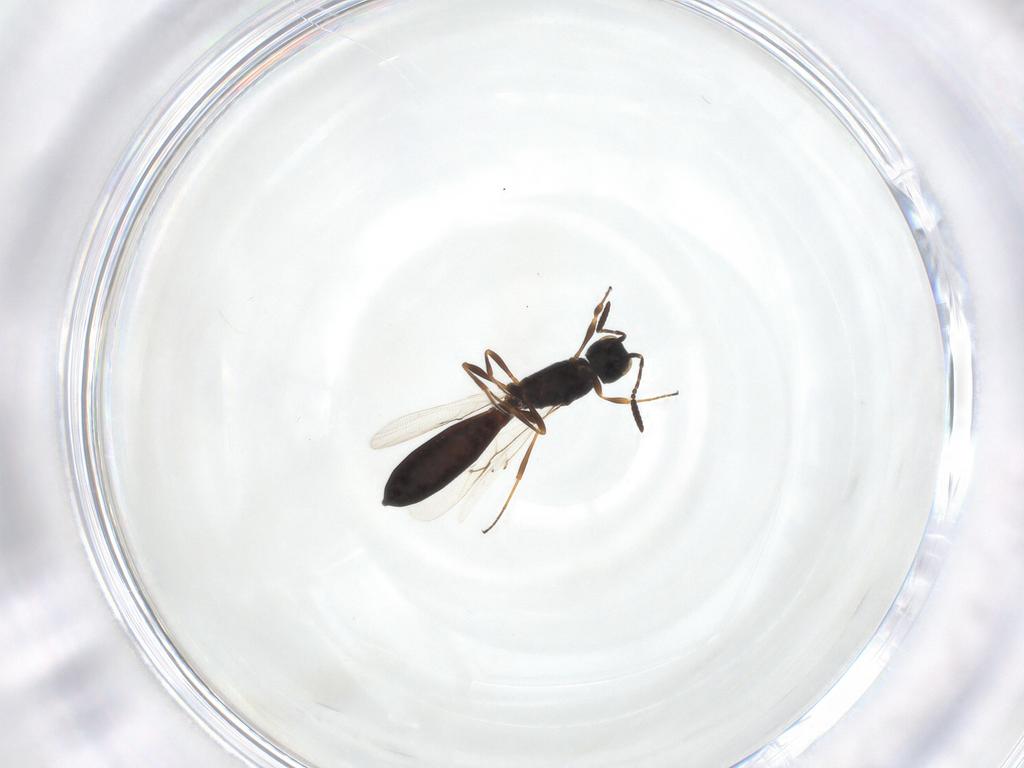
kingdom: Animalia
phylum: Arthropoda
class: Insecta
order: Hymenoptera
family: Scelionidae
